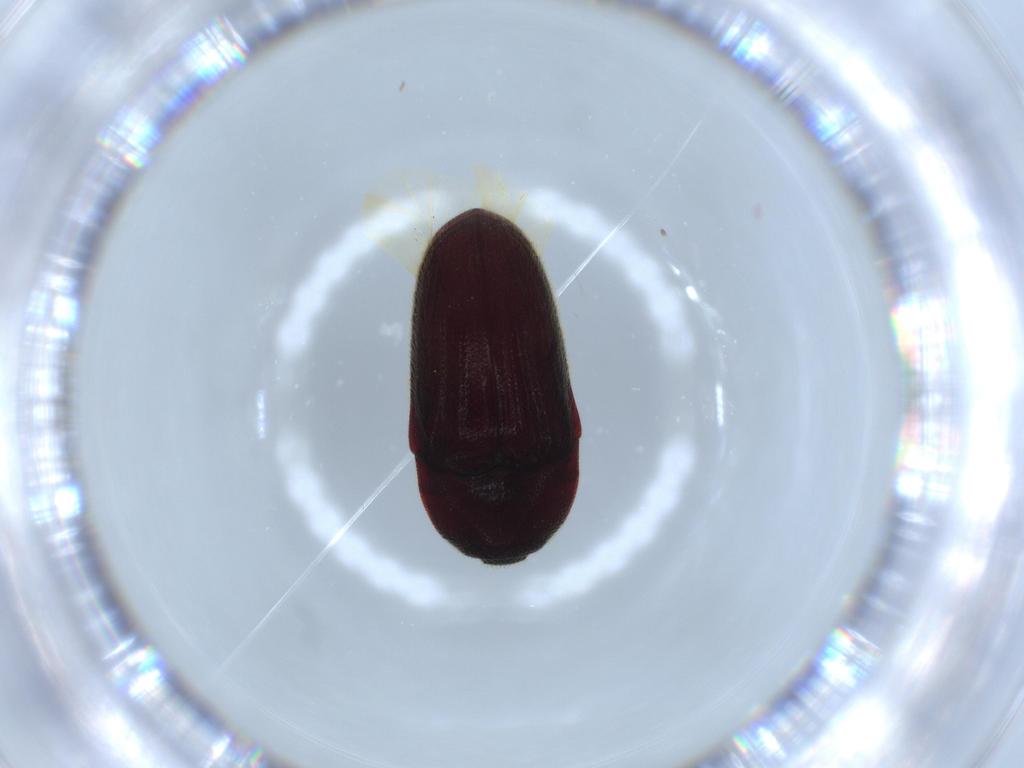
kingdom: Animalia
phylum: Arthropoda
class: Insecta
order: Coleoptera
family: Throscidae
